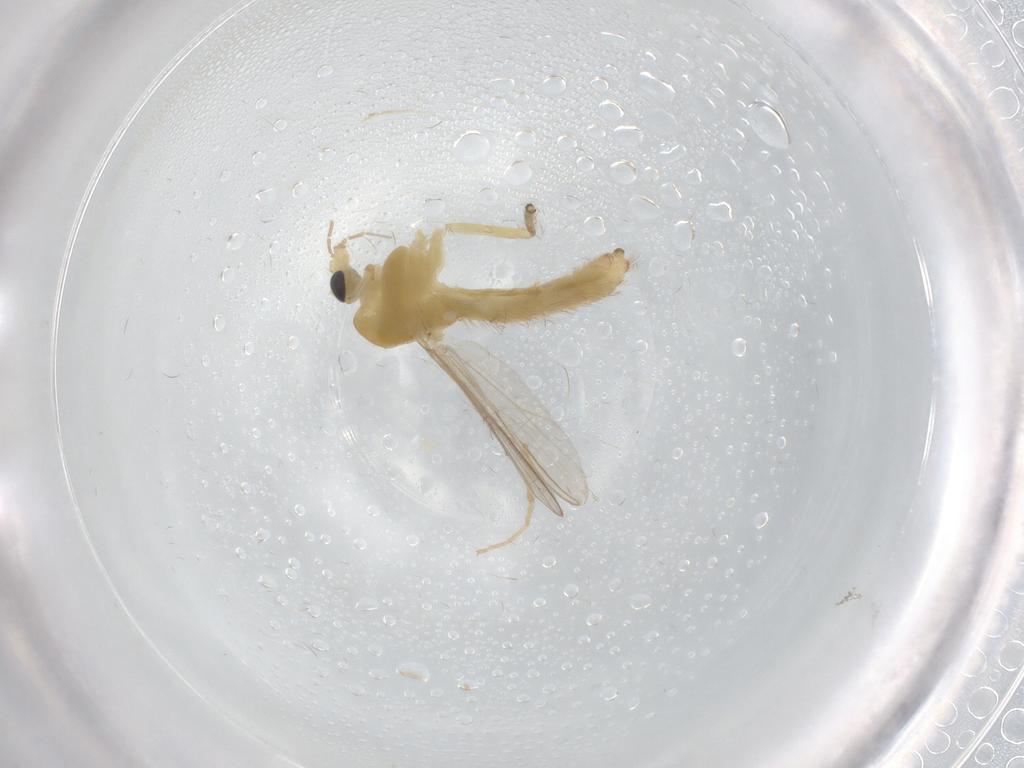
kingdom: Animalia
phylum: Arthropoda
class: Insecta
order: Diptera
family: Chironomidae
